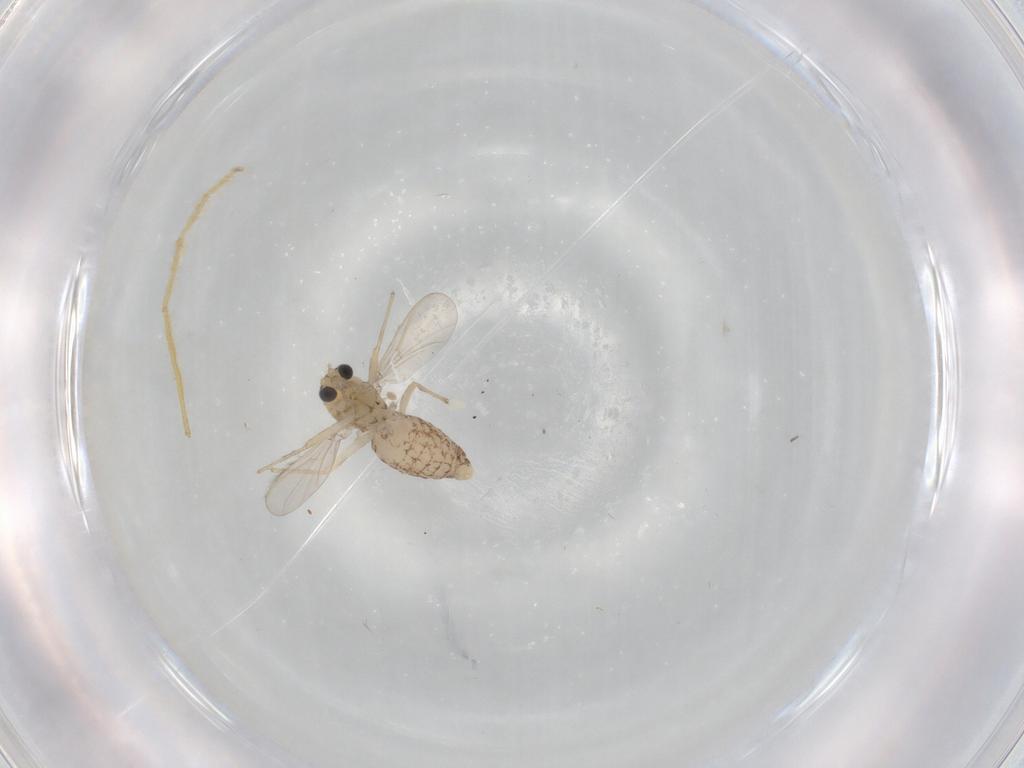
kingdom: Animalia
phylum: Arthropoda
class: Insecta
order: Diptera
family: Chironomidae
